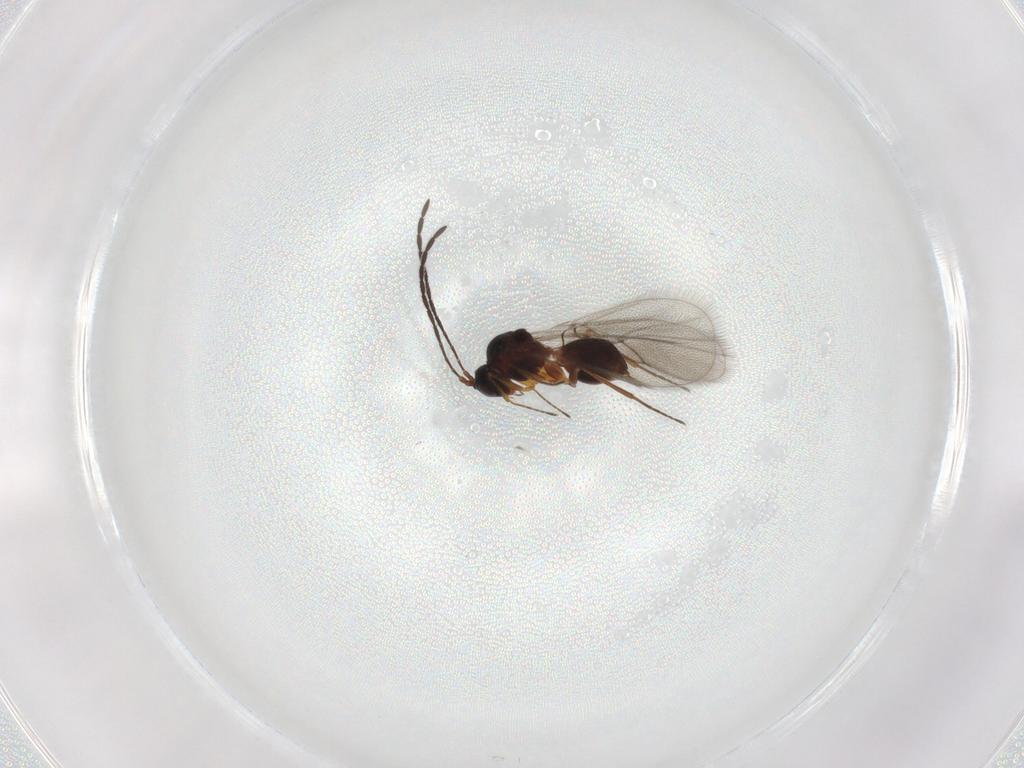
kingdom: Animalia
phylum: Arthropoda
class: Insecta
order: Hymenoptera
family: Figitidae
